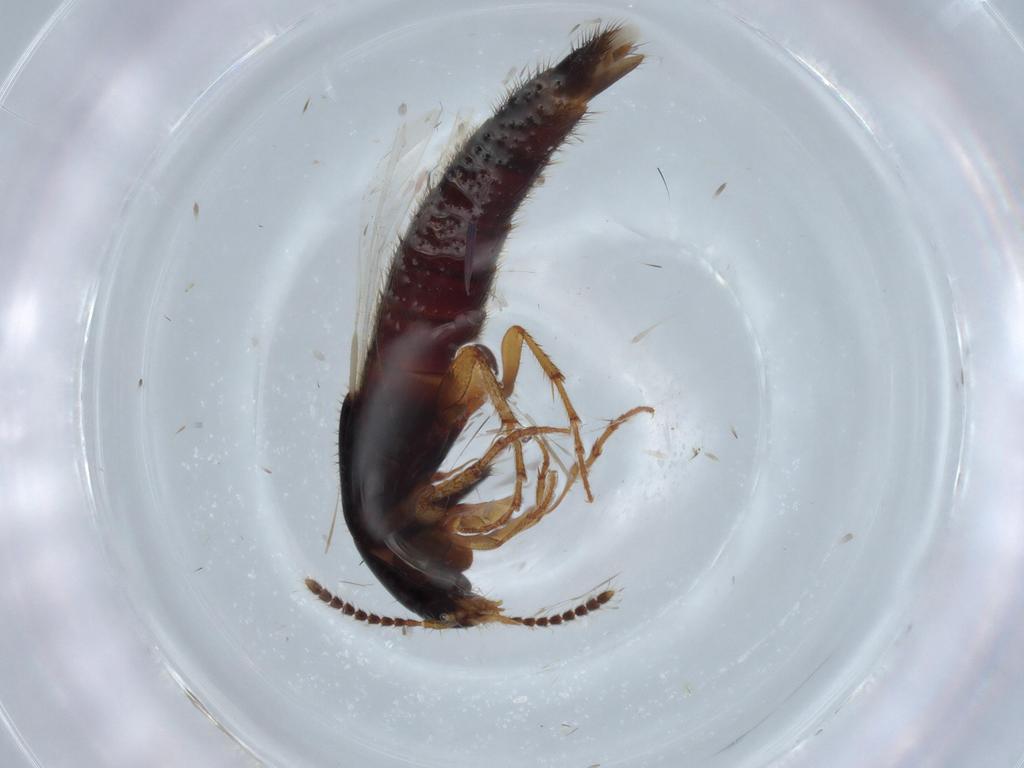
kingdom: Animalia
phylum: Arthropoda
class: Insecta
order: Coleoptera
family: Staphylinidae
